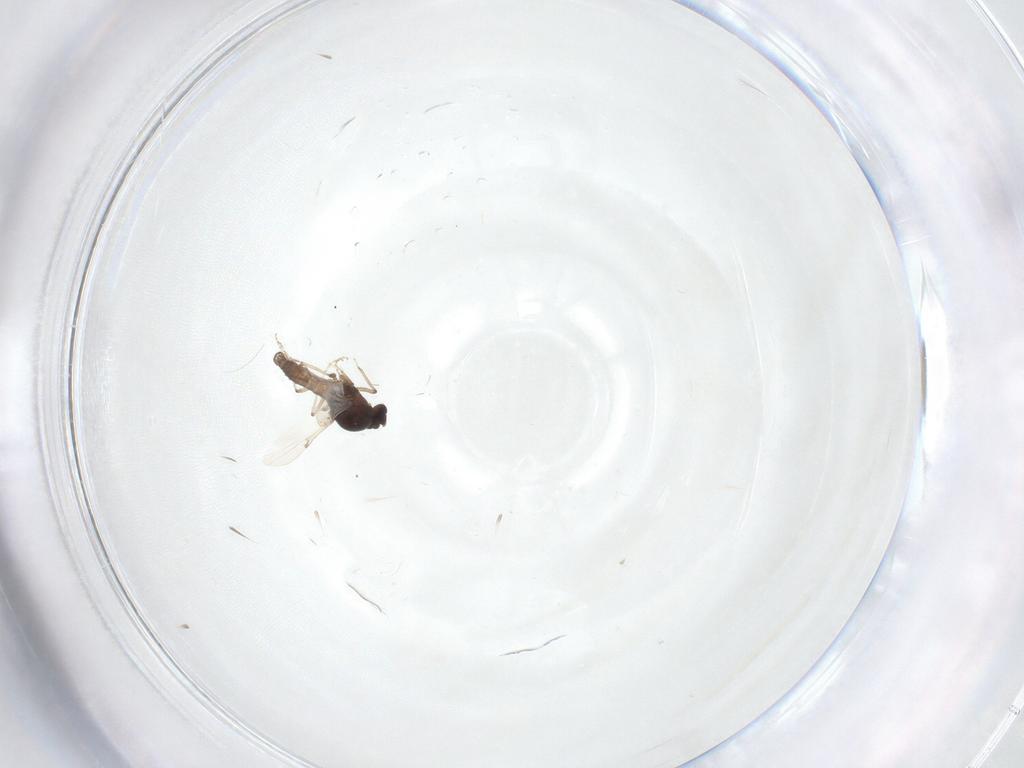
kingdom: Animalia
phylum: Arthropoda
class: Insecta
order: Diptera
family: Ceratopogonidae
